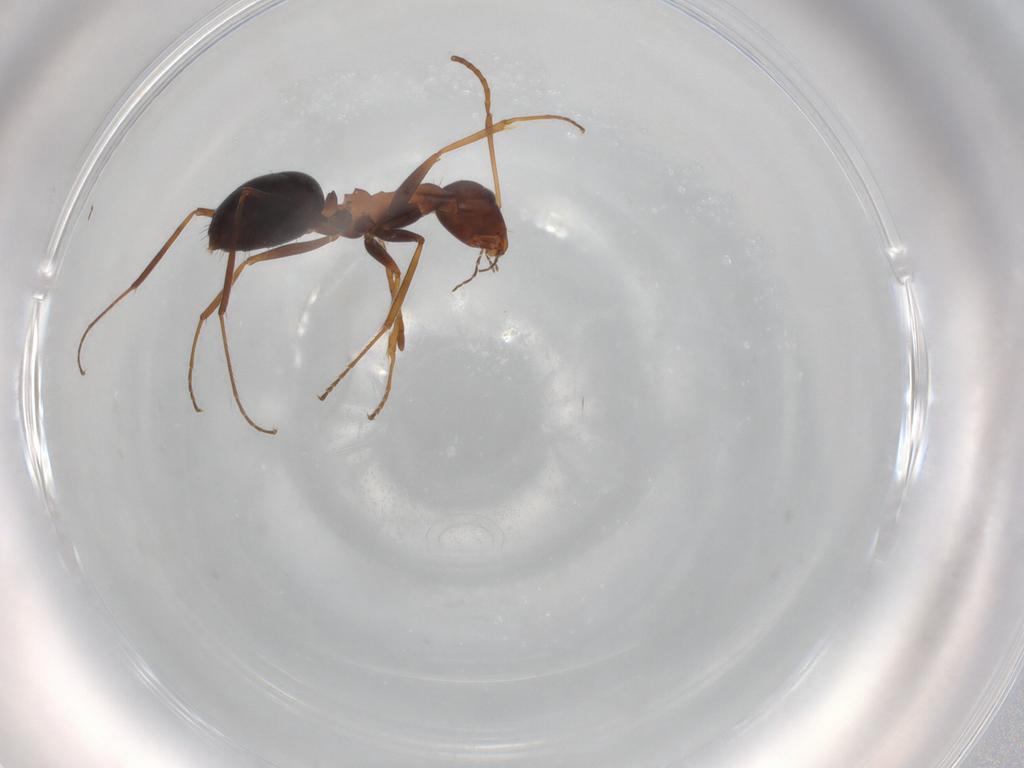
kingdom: Animalia
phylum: Arthropoda
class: Insecta
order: Hymenoptera
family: Formicidae
